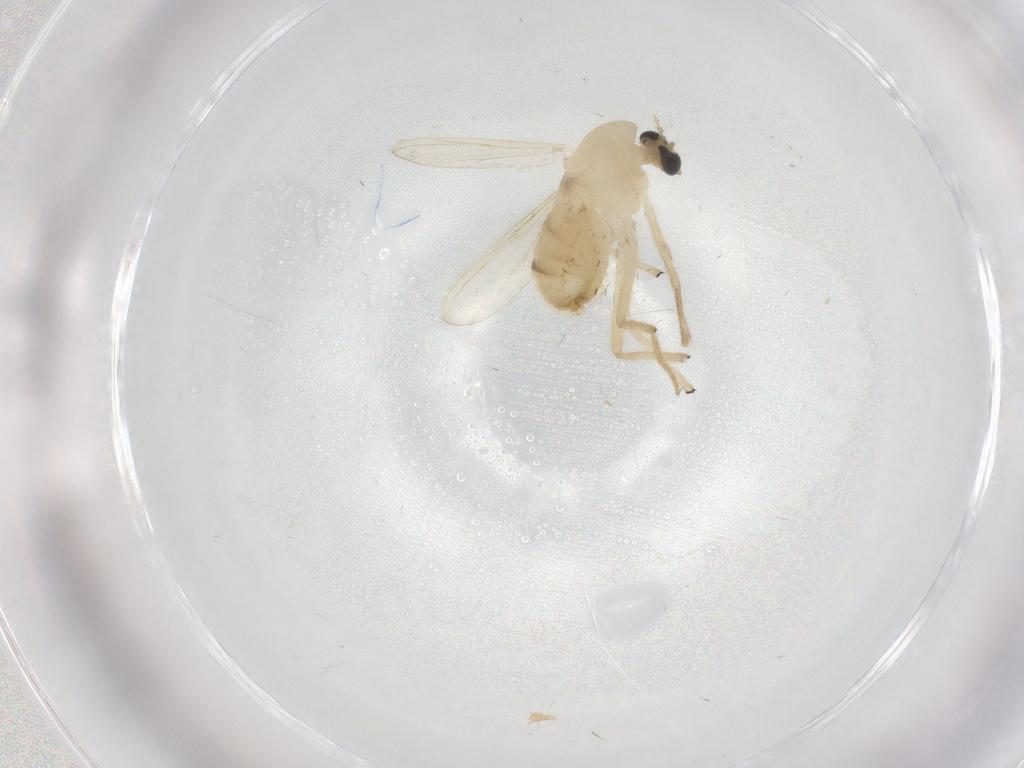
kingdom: Animalia
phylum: Arthropoda
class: Insecta
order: Diptera
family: Chironomidae
